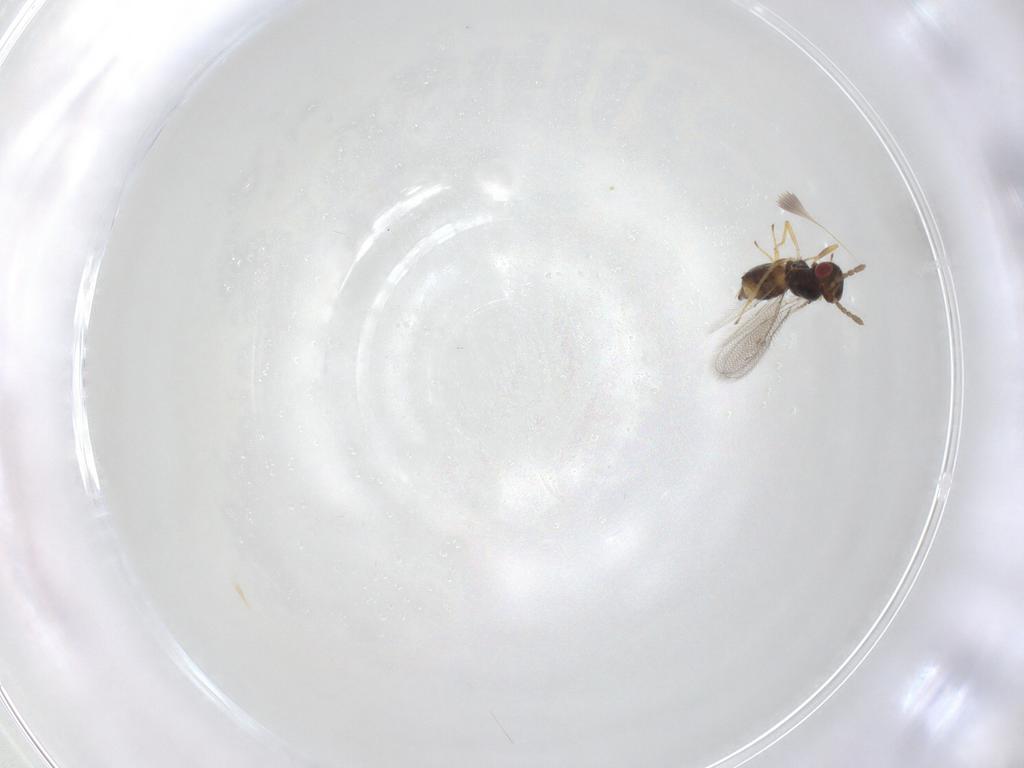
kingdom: Animalia
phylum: Arthropoda
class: Insecta
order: Hymenoptera
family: Eulophidae
